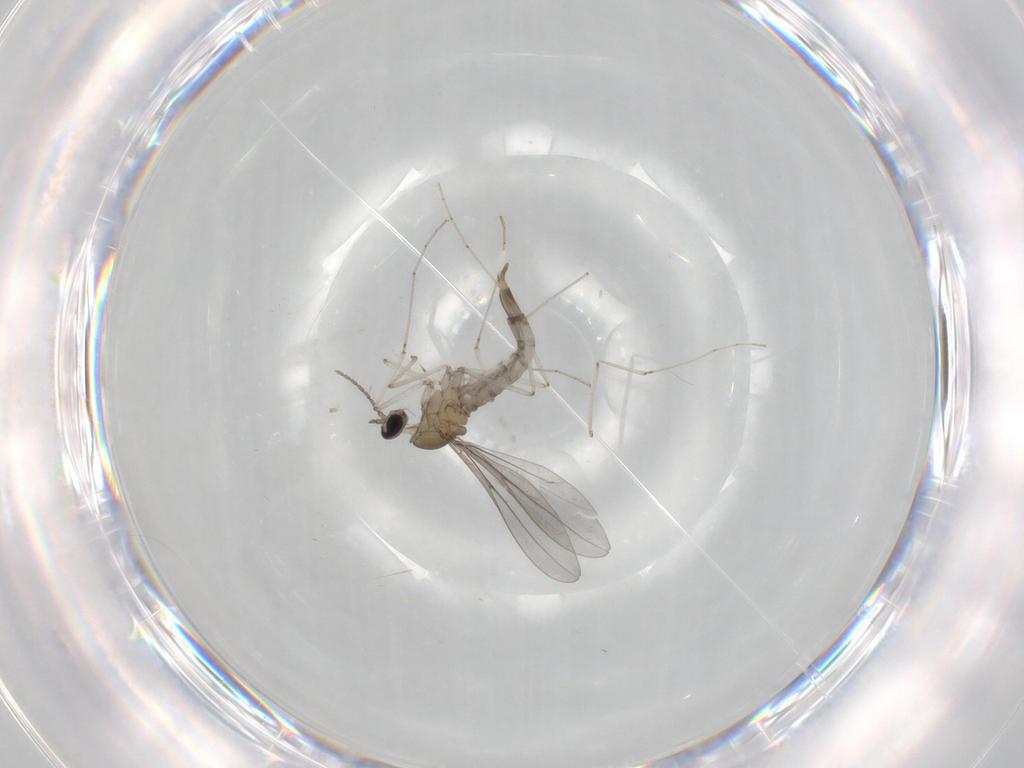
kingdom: Animalia
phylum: Arthropoda
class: Insecta
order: Diptera
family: Cecidomyiidae
